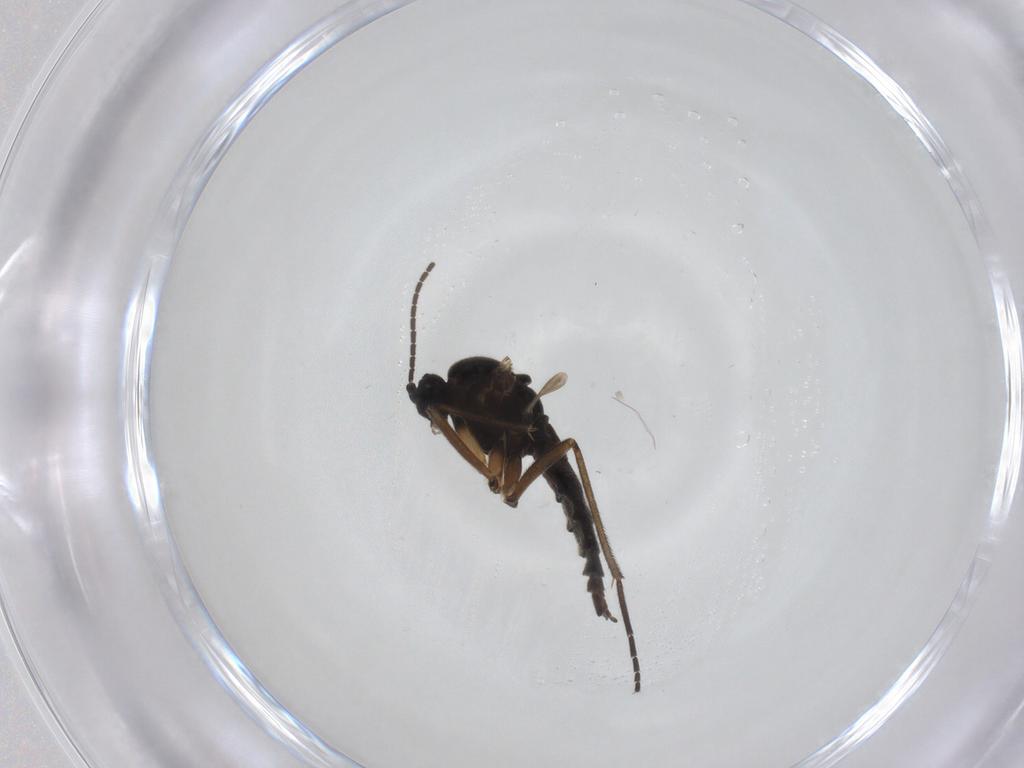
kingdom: Animalia
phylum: Arthropoda
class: Insecta
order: Diptera
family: Sciaridae
